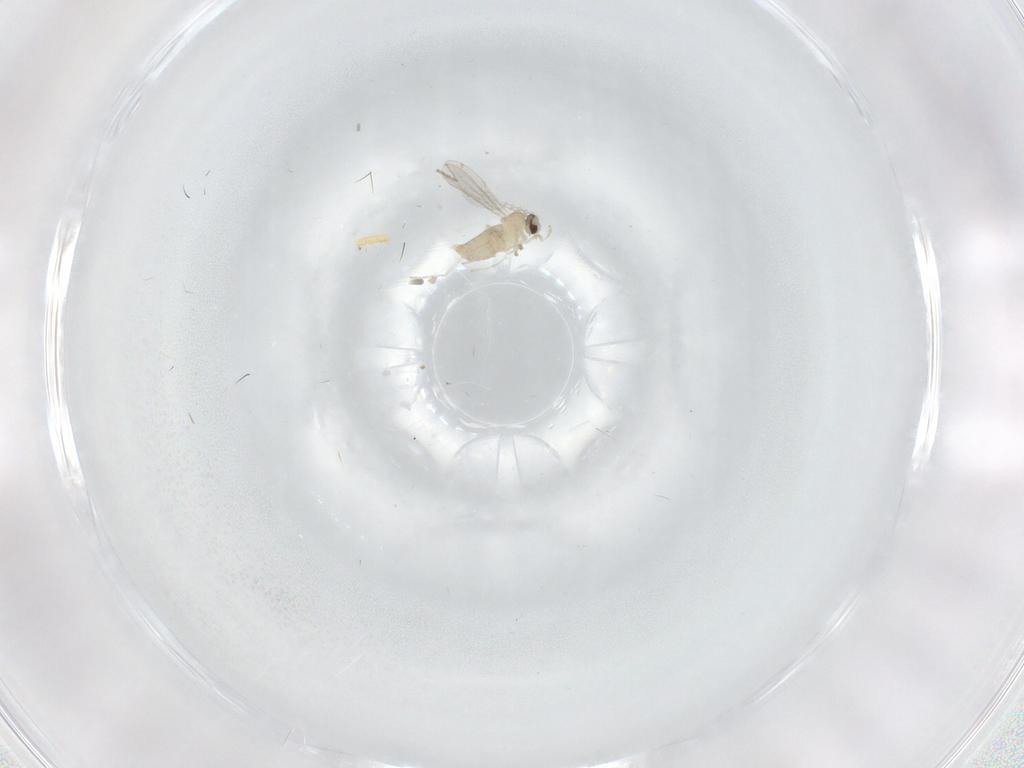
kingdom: Animalia
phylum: Arthropoda
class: Insecta
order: Diptera
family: Cecidomyiidae
